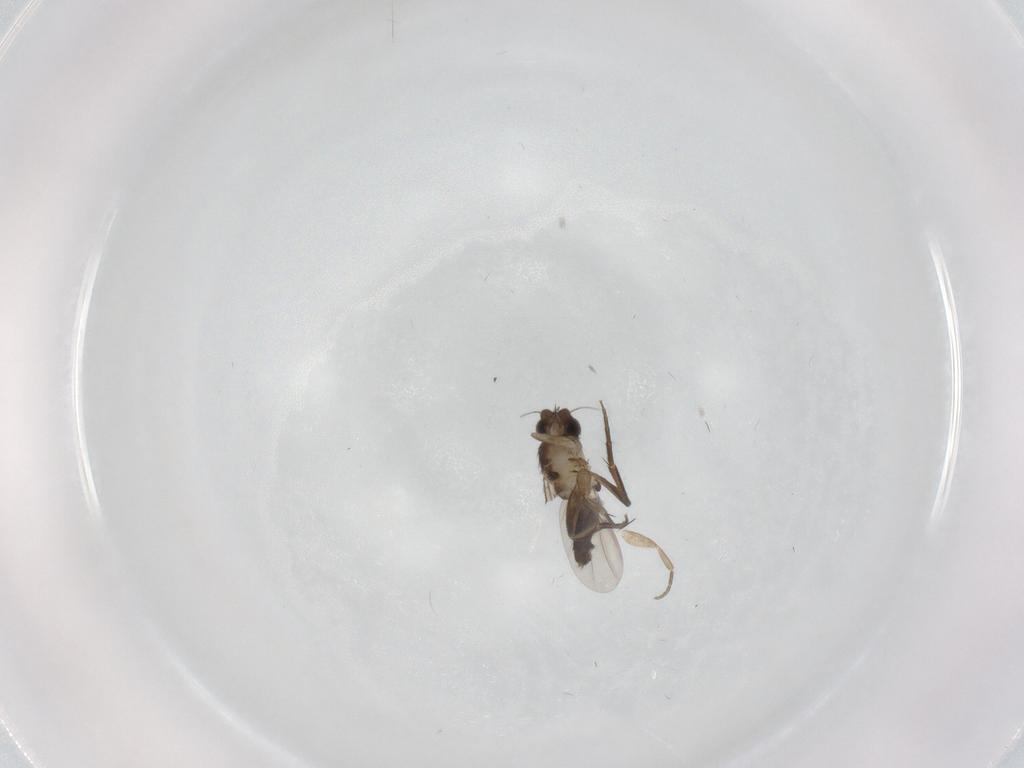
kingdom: Animalia
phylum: Arthropoda
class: Insecta
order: Diptera
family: Phoridae
